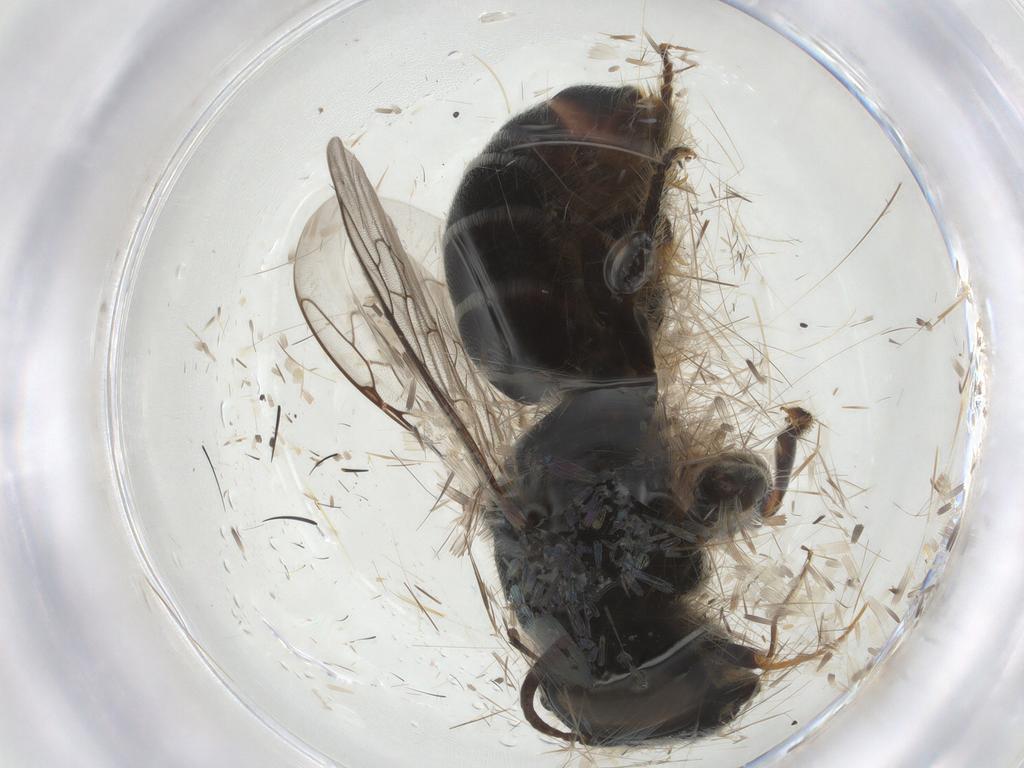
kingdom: Animalia
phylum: Arthropoda
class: Insecta
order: Hymenoptera
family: Megachilidae
